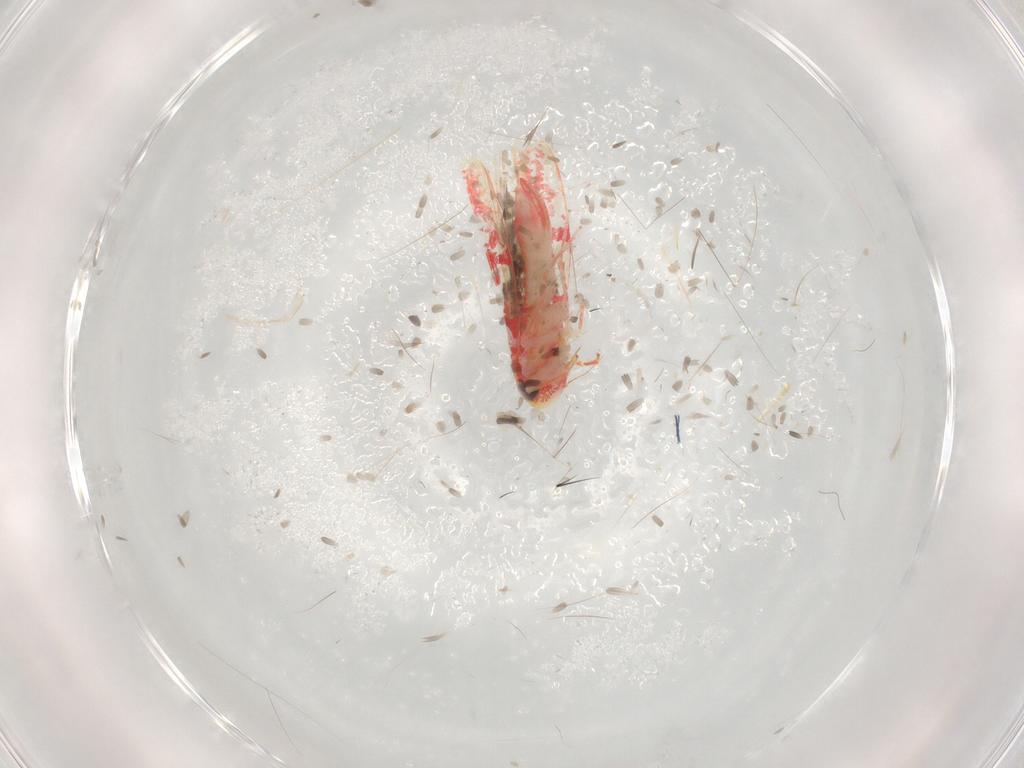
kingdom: Animalia
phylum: Arthropoda
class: Insecta
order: Hemiptera
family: Cicadellidae
